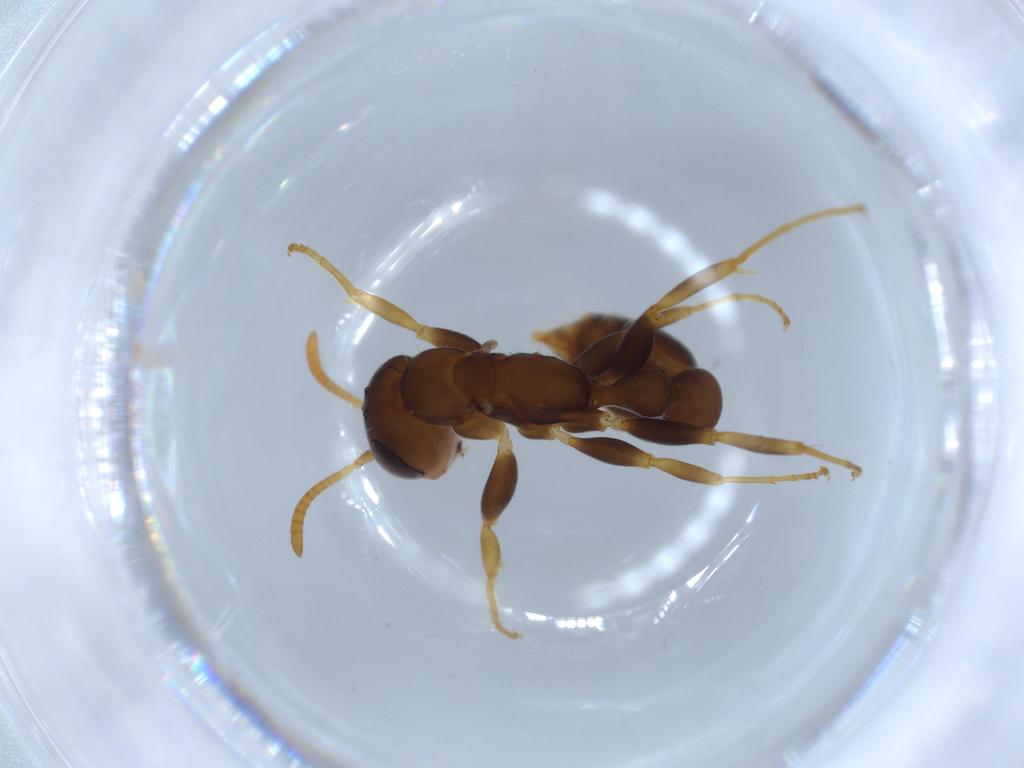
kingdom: Animalia
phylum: Arthropoda
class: Insecta
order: Hymenoptera
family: Formicidae
